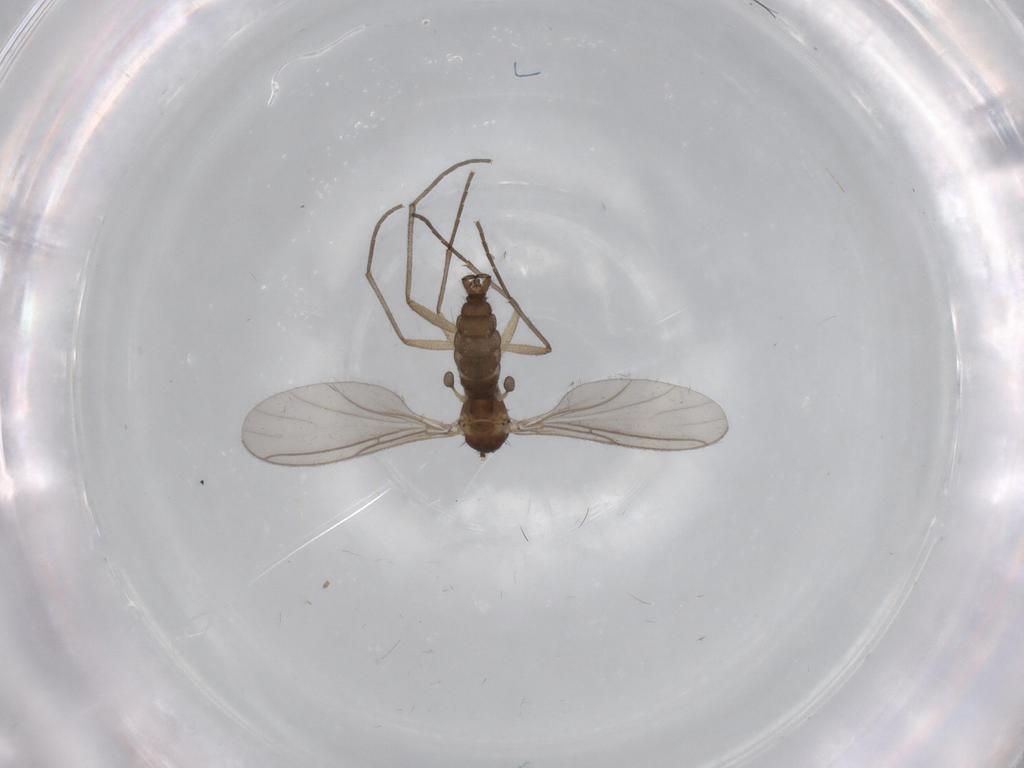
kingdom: Animalia
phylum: Arthropoda
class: Insecta
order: Diptera
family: Sciaridae
